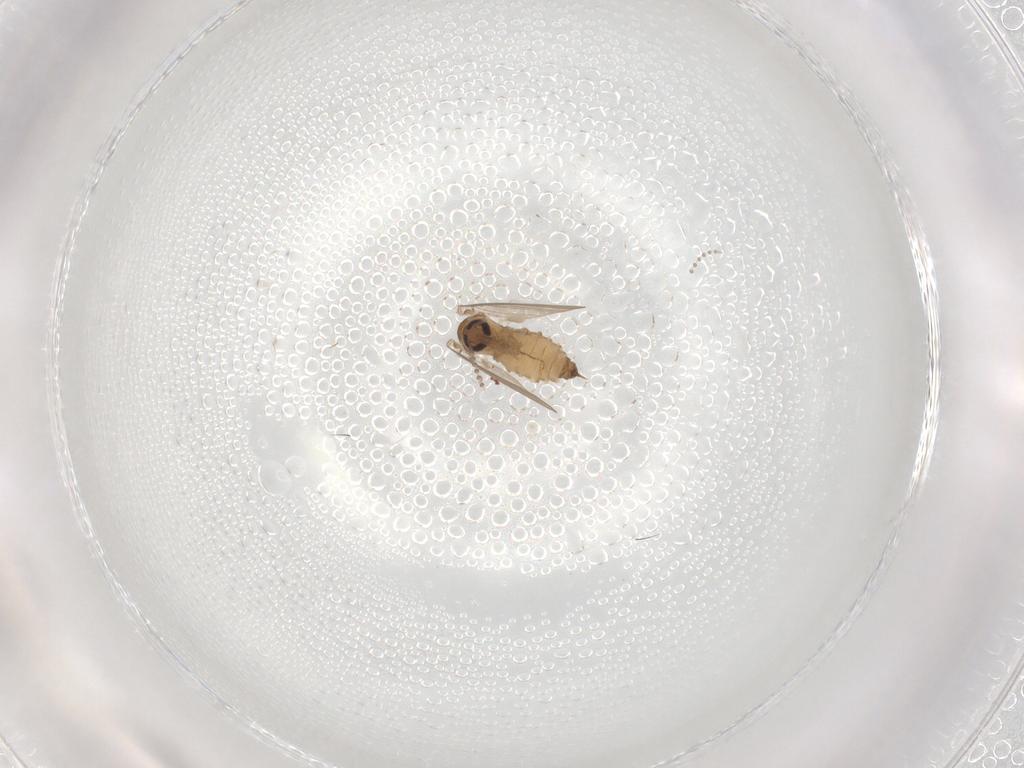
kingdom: Animalia
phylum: Arthropoda
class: Insecta
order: Diptera
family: Psychodidae
